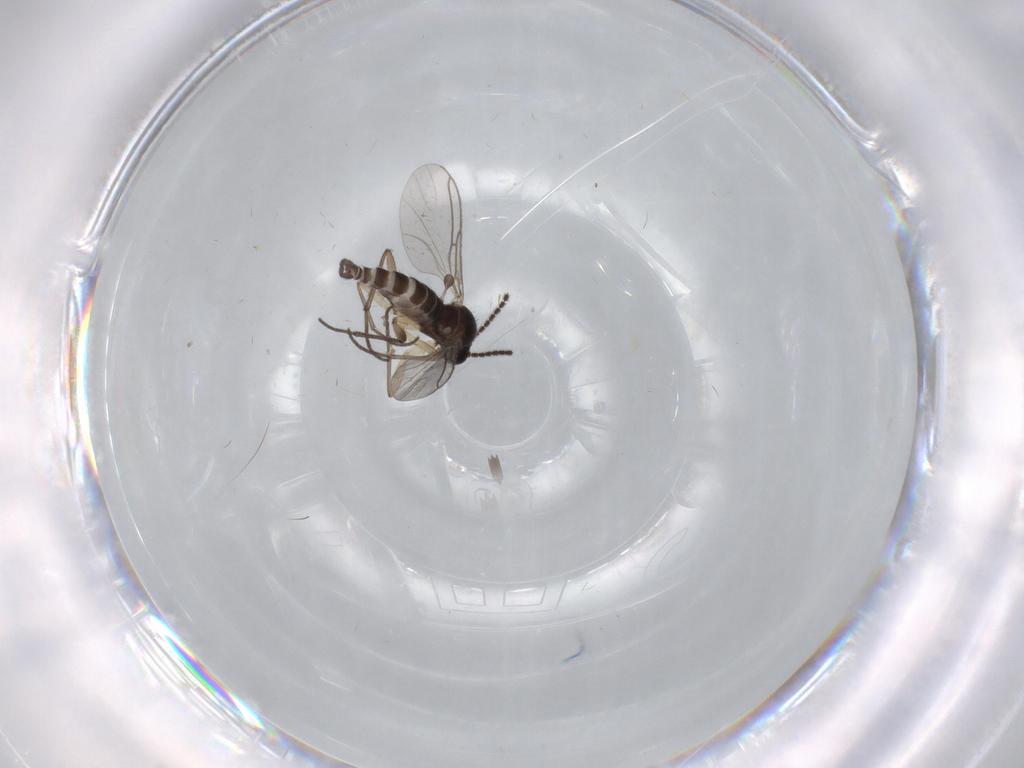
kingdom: Animalia
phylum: Arthropoda
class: Insecta
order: Diptera
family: Sciaridae
